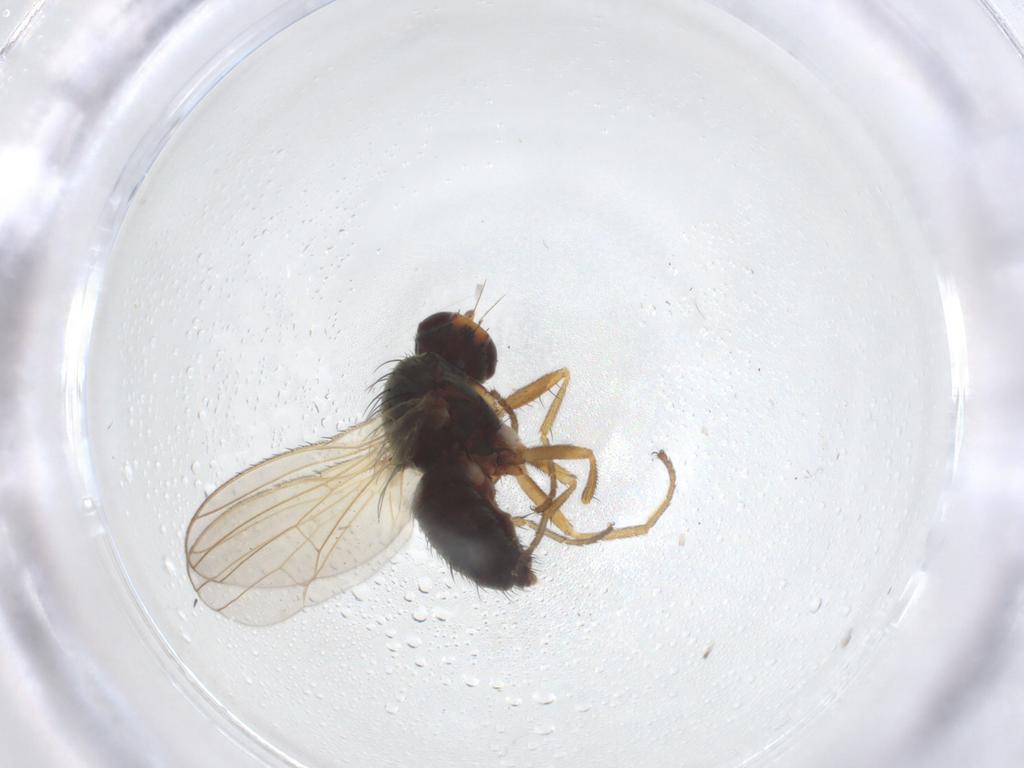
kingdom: Animalia
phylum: Arthropoda
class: Insecta
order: Diptera
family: Heleomyzidae
